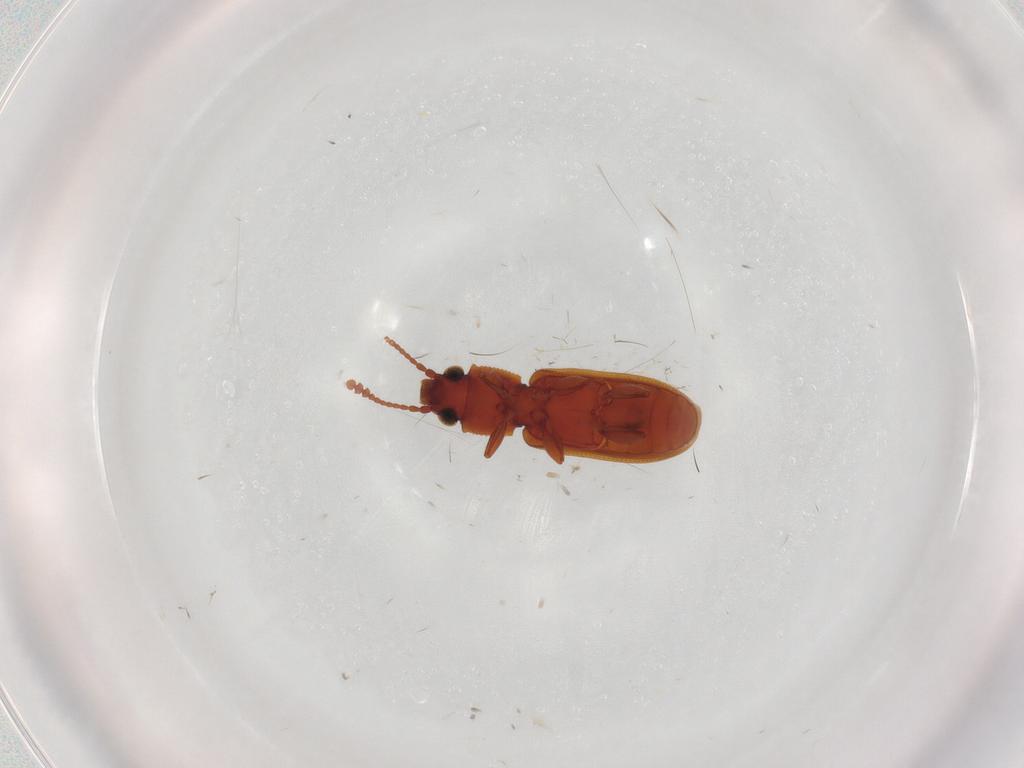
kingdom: Animalia
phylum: Arthropoda
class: Insecta
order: Coleoptera
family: Silvanidae
